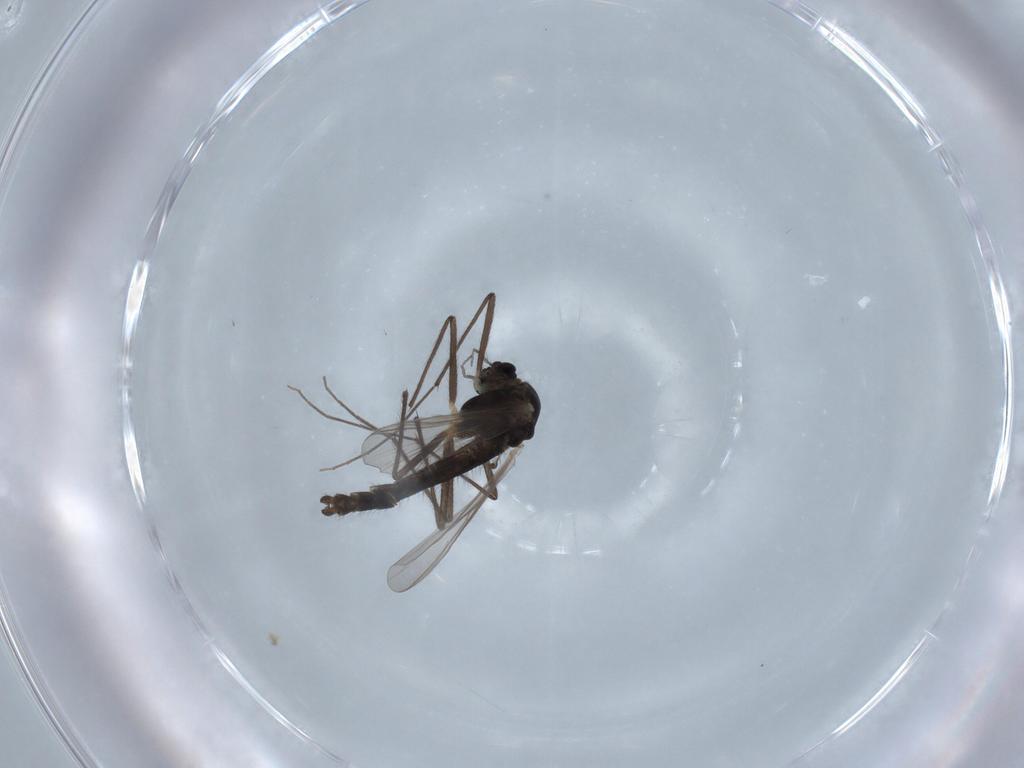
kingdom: Animalia
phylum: Arthropoda
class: Insecta
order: Diptera
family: Chironomidae
